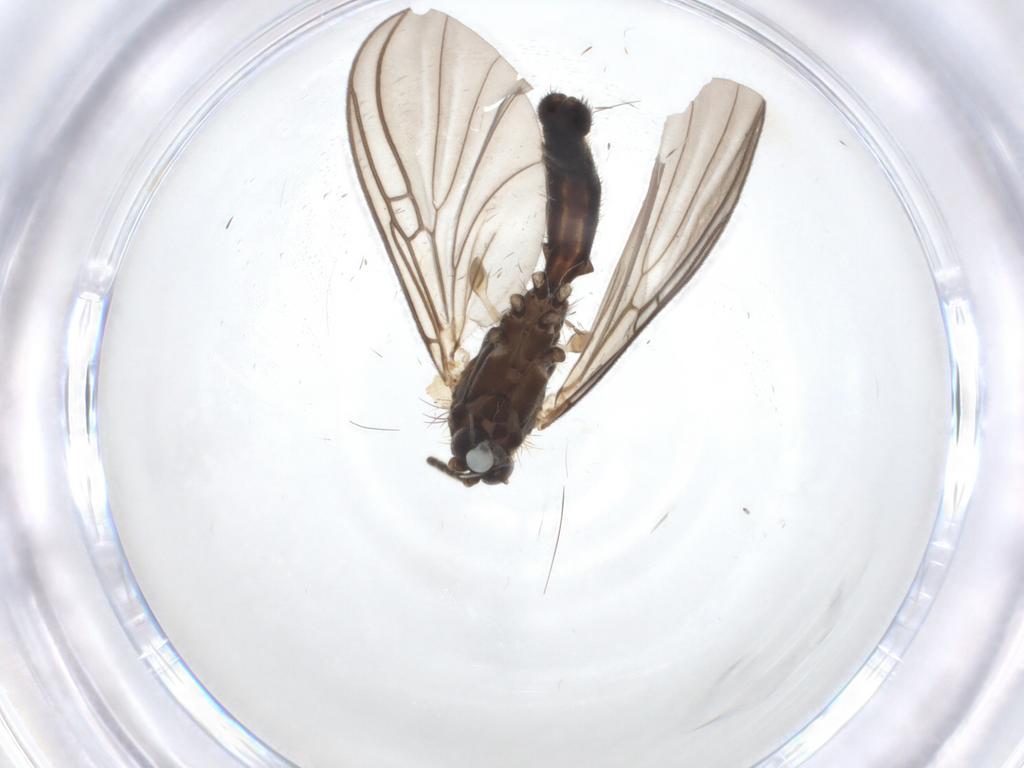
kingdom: Animalia
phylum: Arthropoda
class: Insecta
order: Diptera
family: Mycetophilidae
